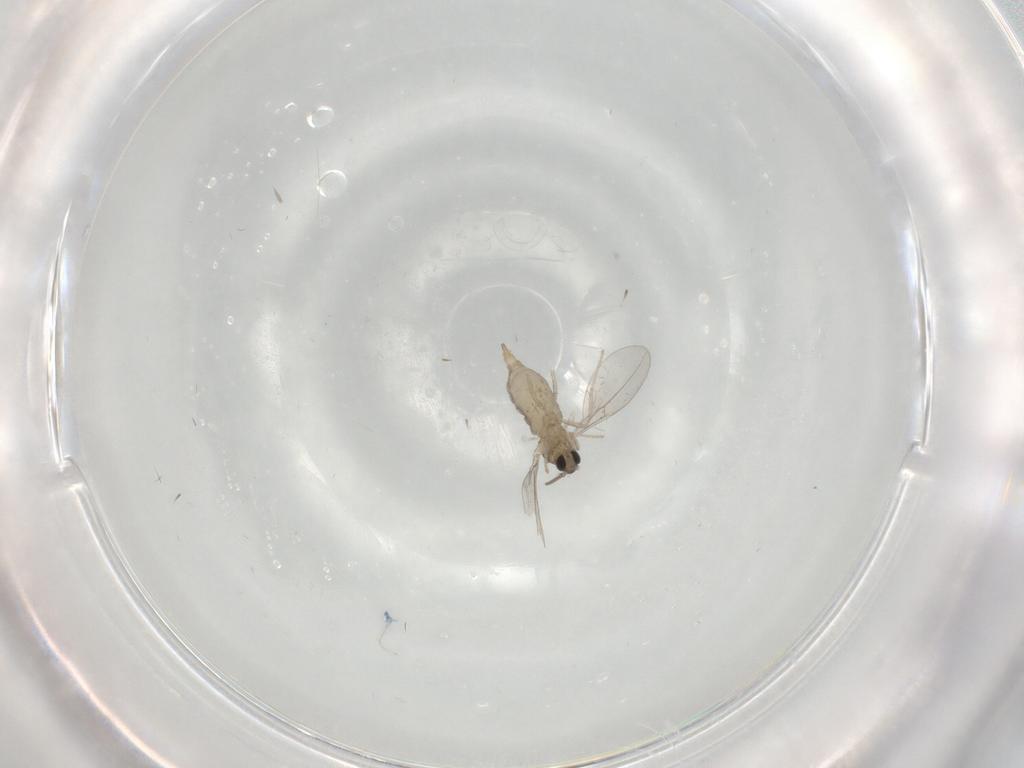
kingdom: Animalia
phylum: Arthropoda
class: Insecta
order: Diptera
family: Cecidomyiidae
